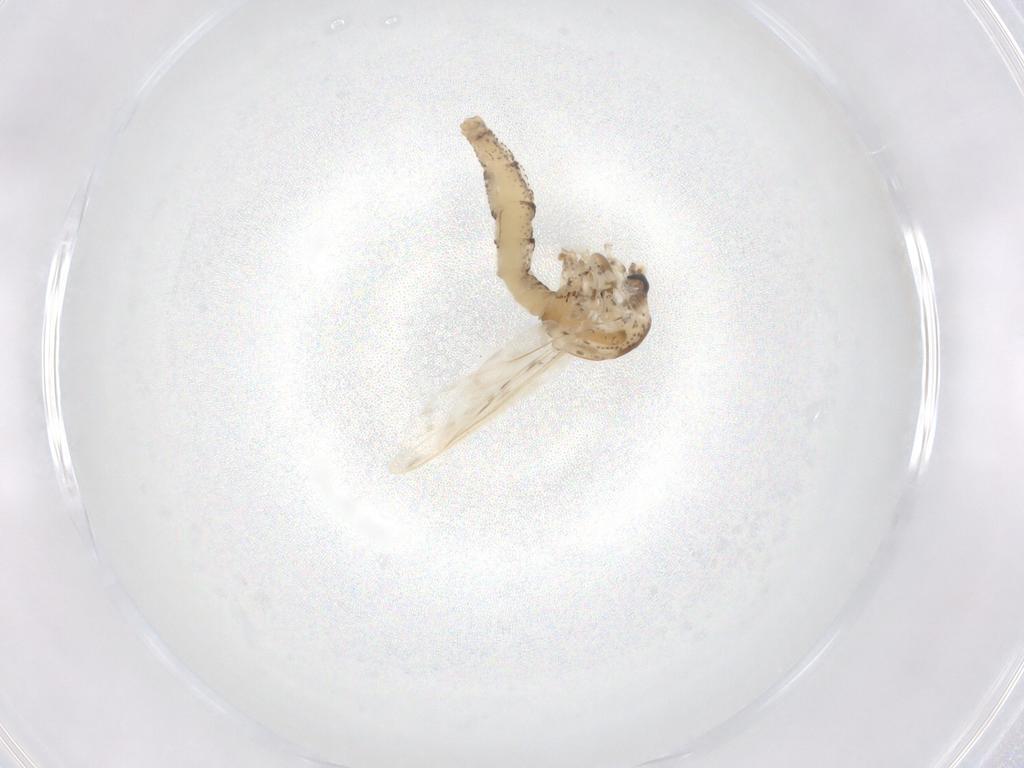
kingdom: Animalia
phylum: Arthropoda
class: Insecta
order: Diptera
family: Chaoboridae
